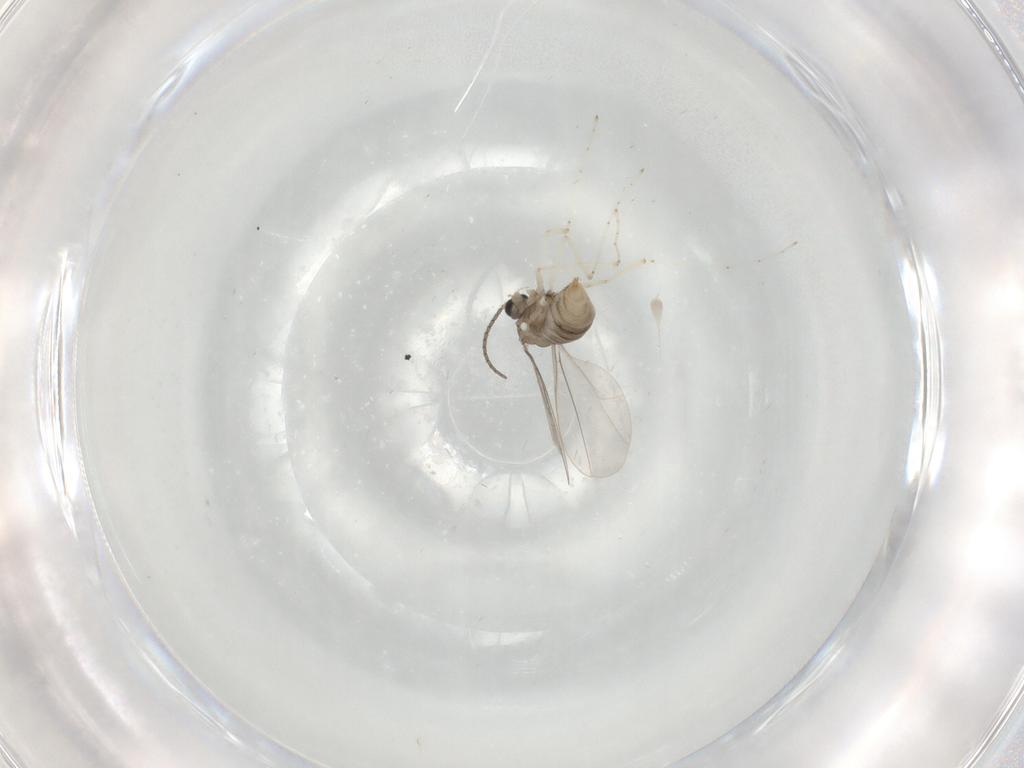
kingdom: Animalia
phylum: Arthropoda
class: Insecta
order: Diptera
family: Cecidomyiidae
